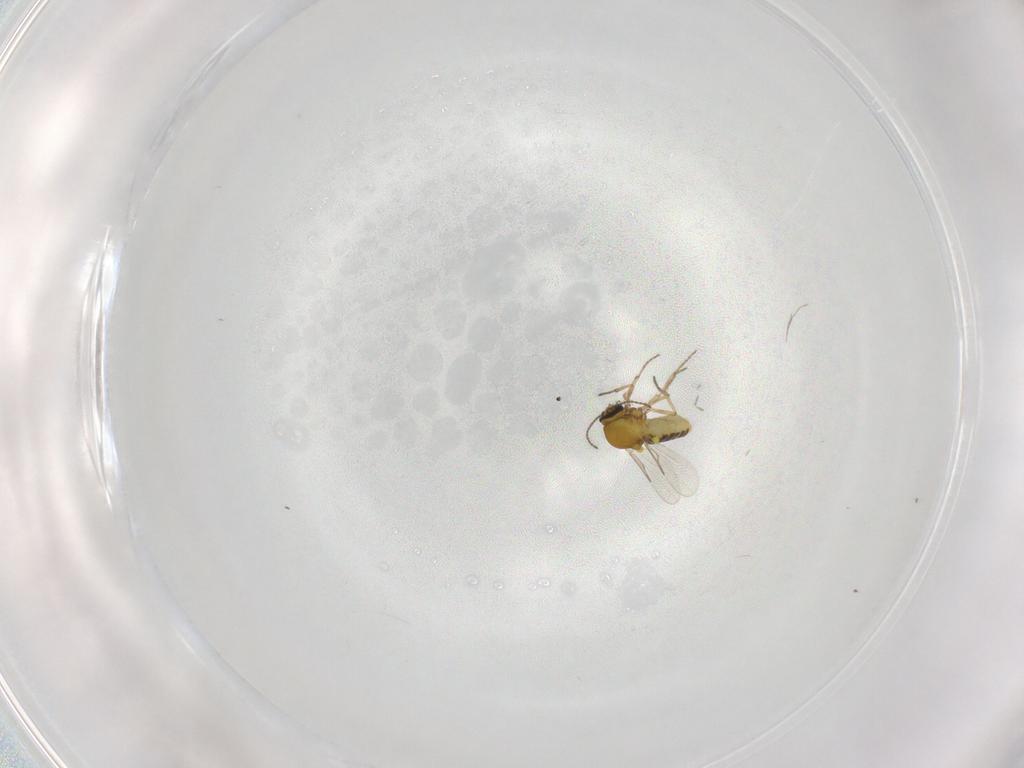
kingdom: Animalia
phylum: Arthropoda
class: Insecta
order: Diptera
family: Ceratopogonidae
